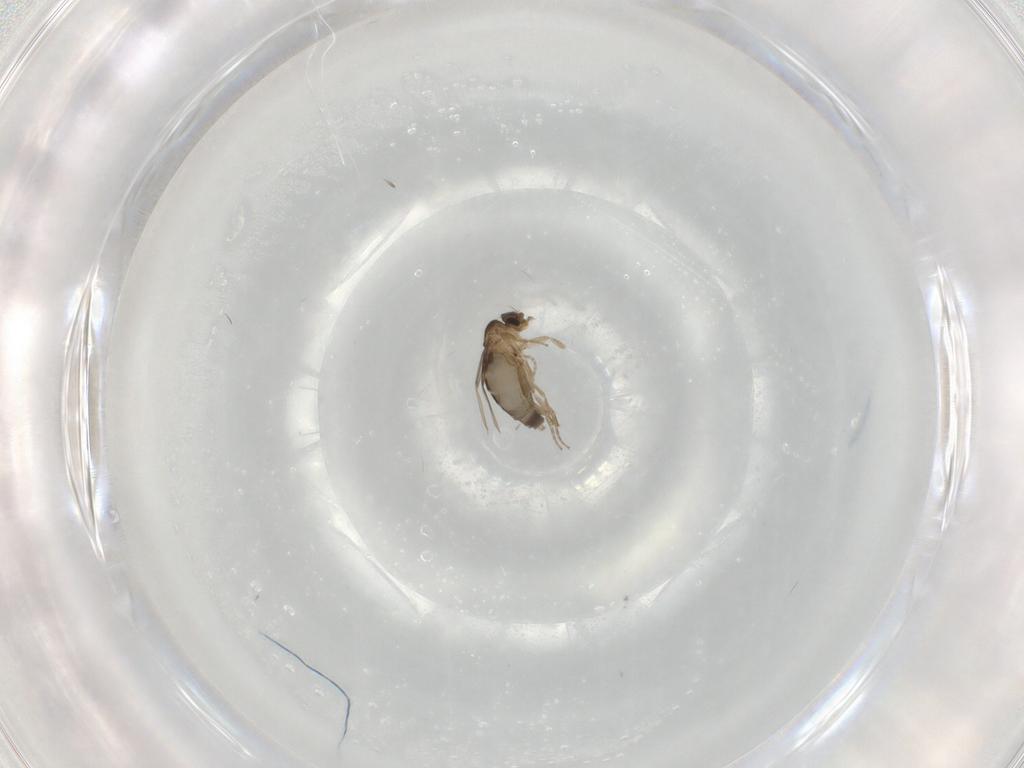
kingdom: Animalia
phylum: Arthropoda
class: Insecta
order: Diptera
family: Phoridae
